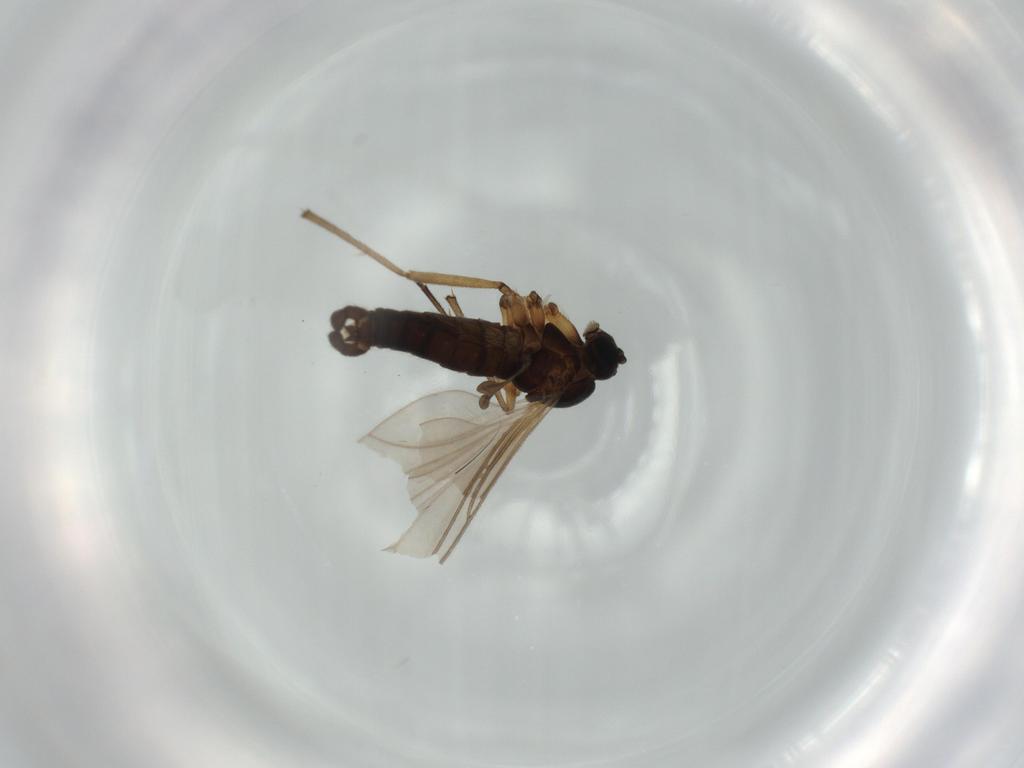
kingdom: Animalia
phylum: Arthropoda
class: Insecta
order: Diptera
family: Sciaridae
